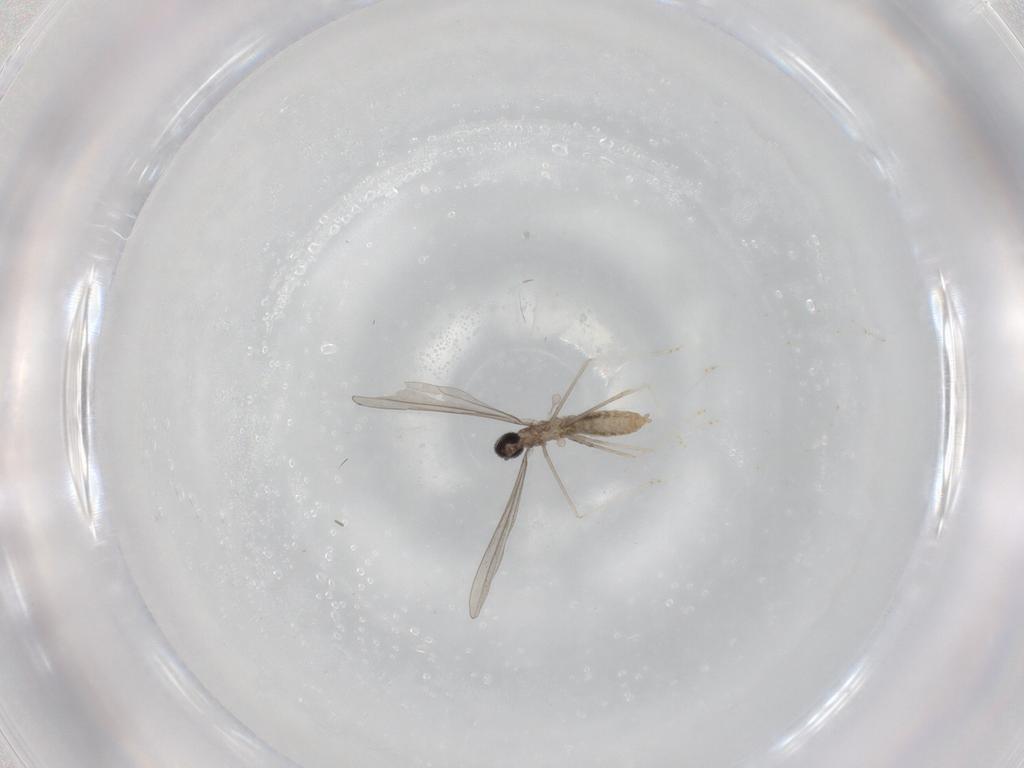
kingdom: Animalia
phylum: Arthropoda
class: Insecta
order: Diptera
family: Cecidomyiidae
